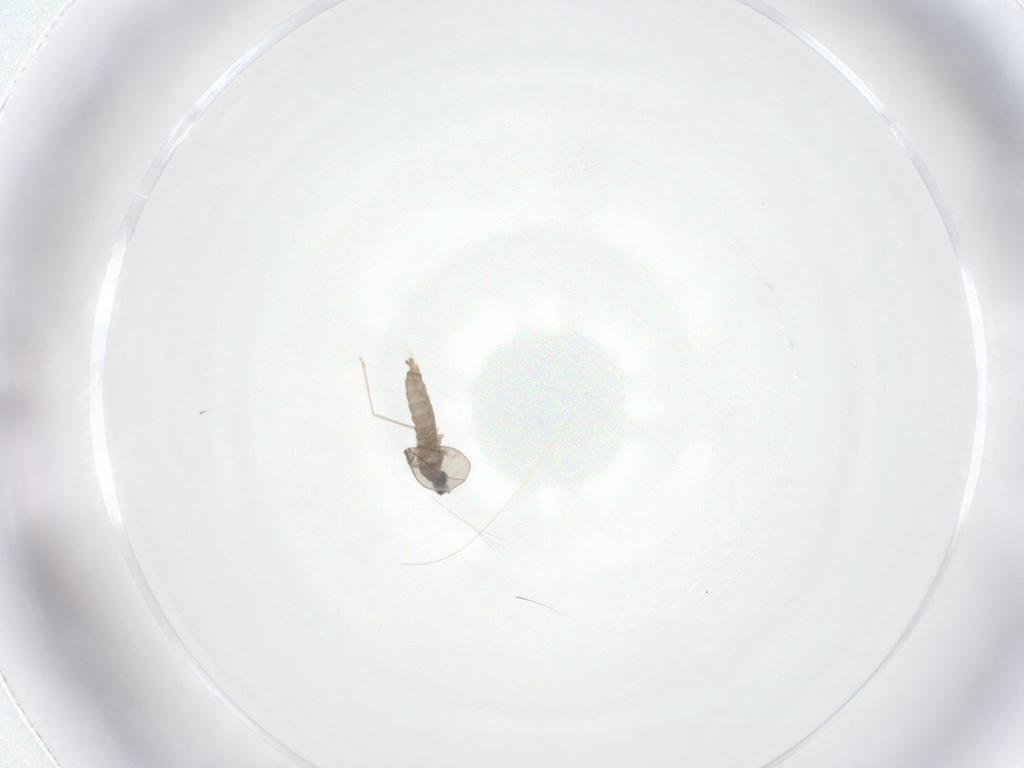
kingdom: Animalia
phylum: Arthropoda
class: Insecta
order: Diptera
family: Cecidomyiidae
